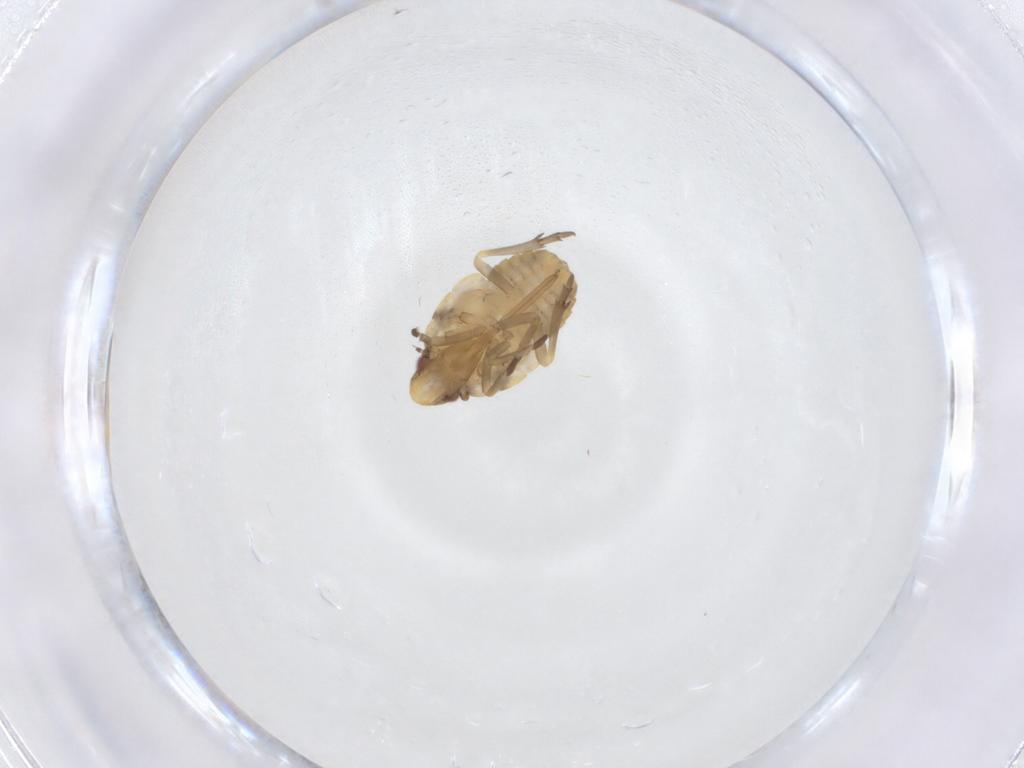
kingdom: Animalia
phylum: Arthropoda
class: Insecta
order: Hemiptera
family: Flatidae
